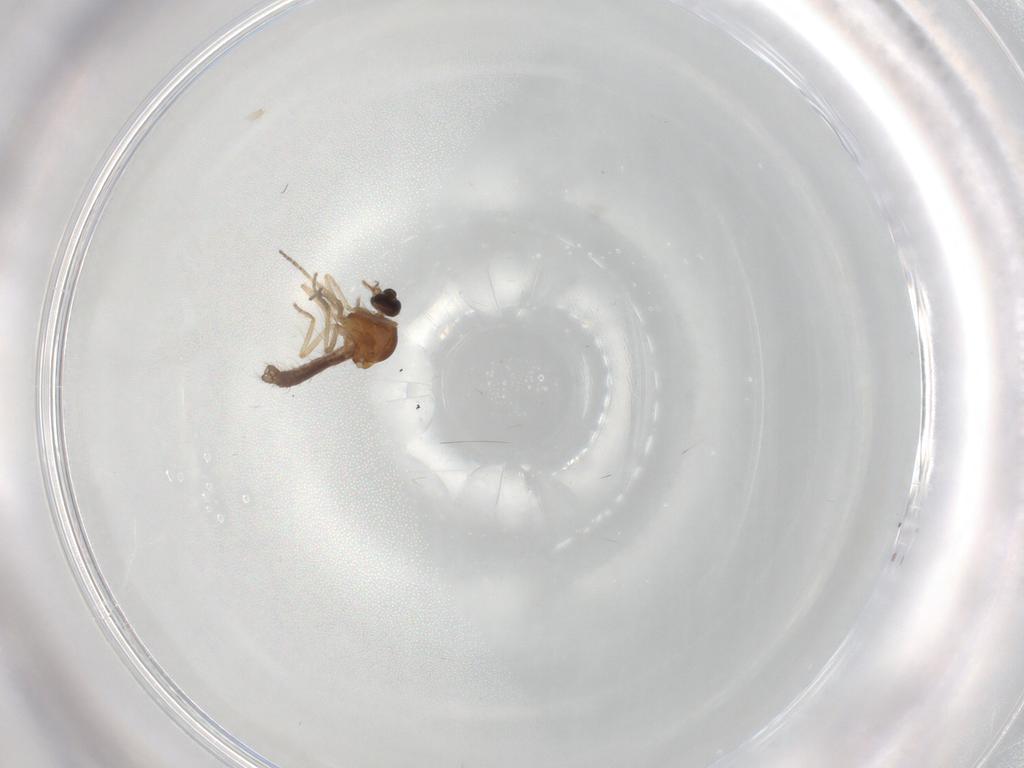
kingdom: Animalia
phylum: Arthropoda
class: Insecta
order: Diptera
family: Ceratopogonidae
